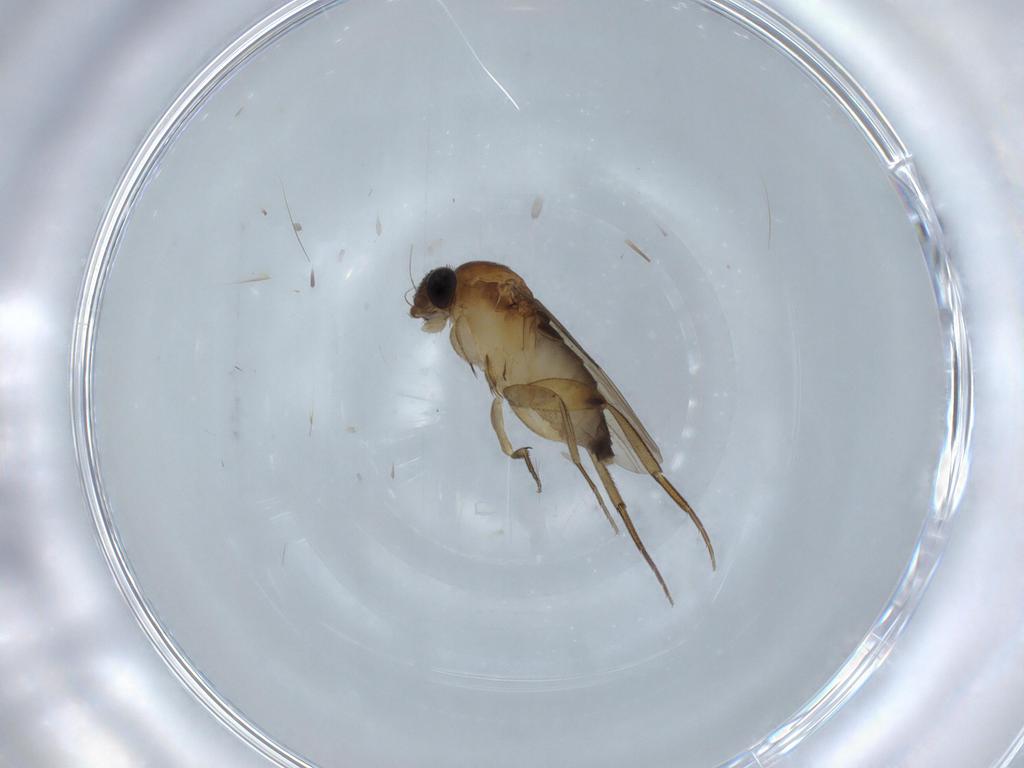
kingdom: Animalia
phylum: Arthropoda
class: Insecta
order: Diptera
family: Phoridae
